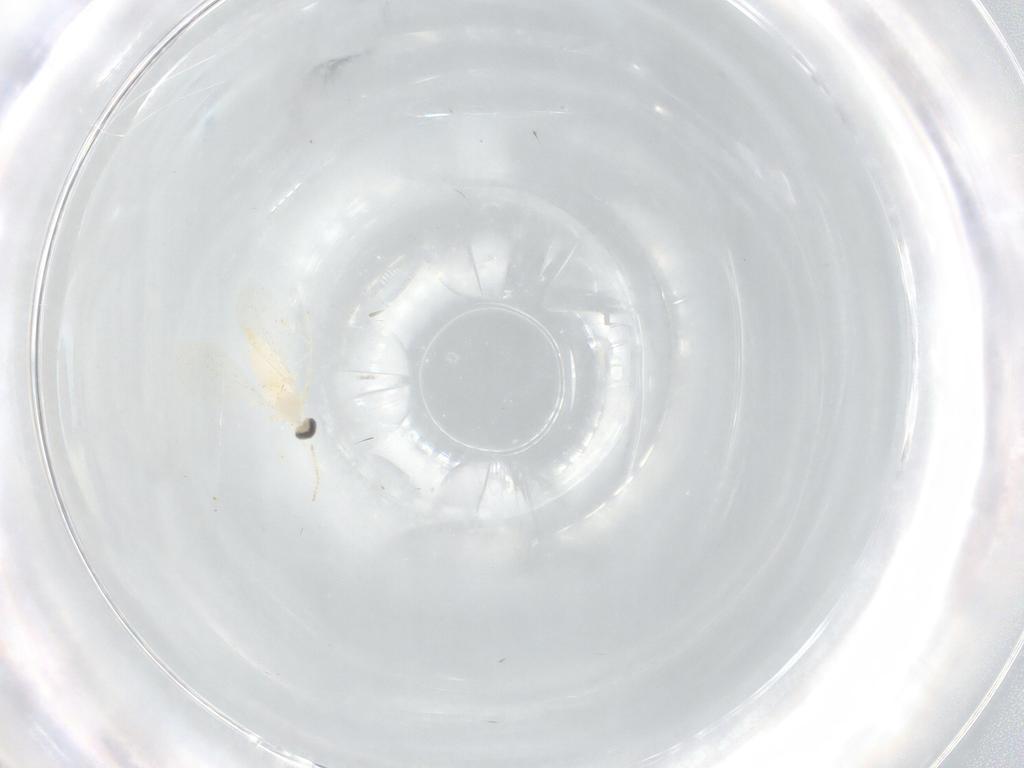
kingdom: Animalia
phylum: Arthropoda
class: Insecta
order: Diptera
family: Cecidomyiidae
